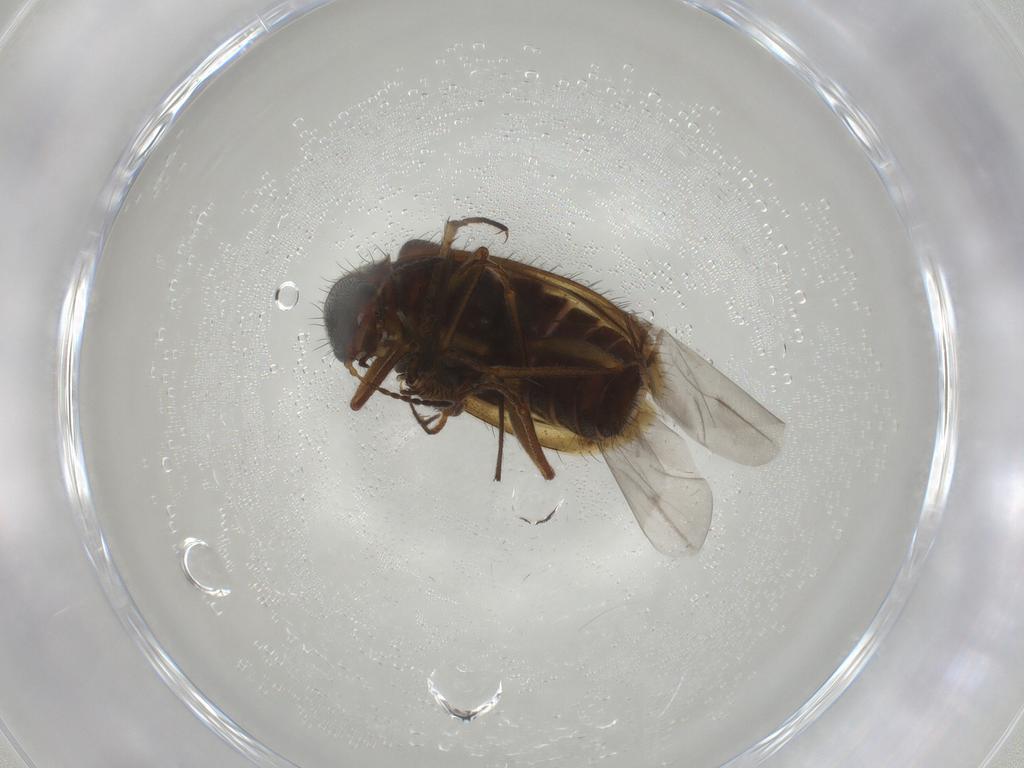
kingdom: Animalia
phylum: Arthropoda
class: Insecta
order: Coleoptera
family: Melyridae
